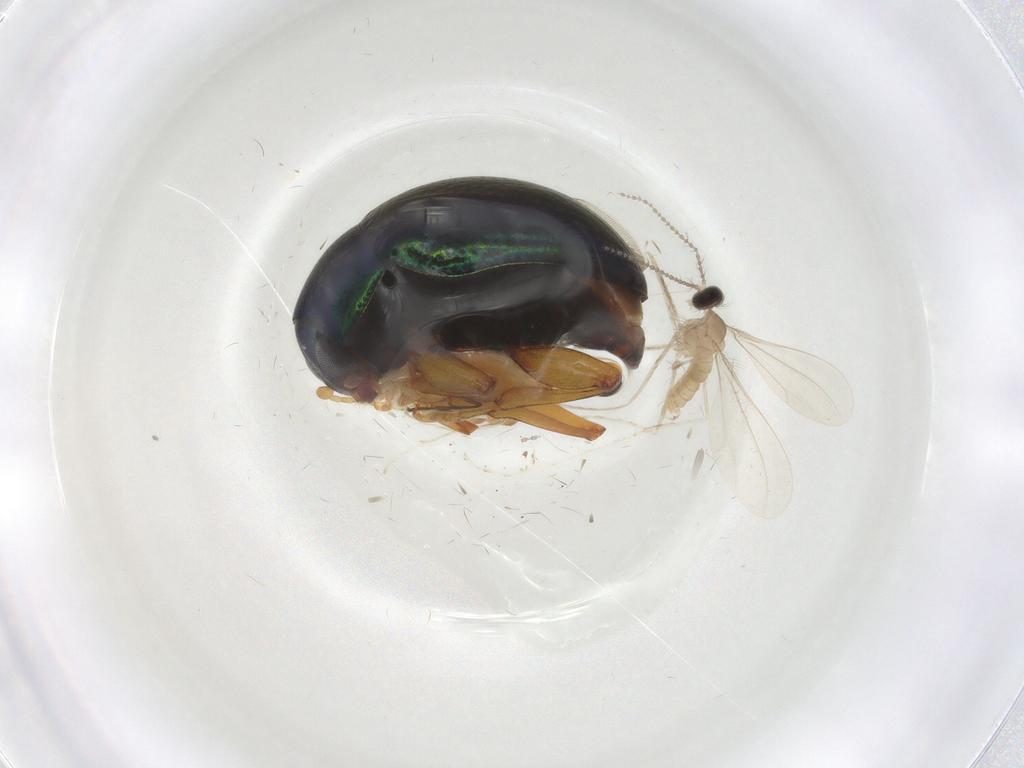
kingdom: Animalia
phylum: Arthropoda
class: Insecta
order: Coleoptera
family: Chrysomelidae
